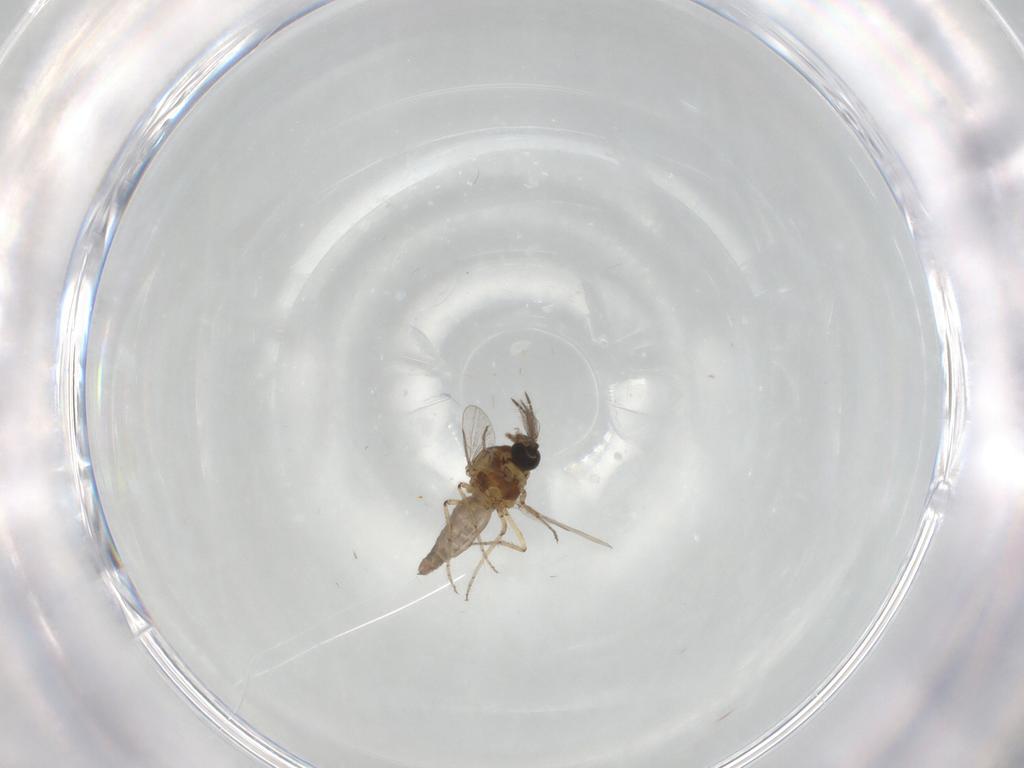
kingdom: Animalia
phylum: Arthropoda
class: Insecta
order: Diptera
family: Ceratopogonidae
